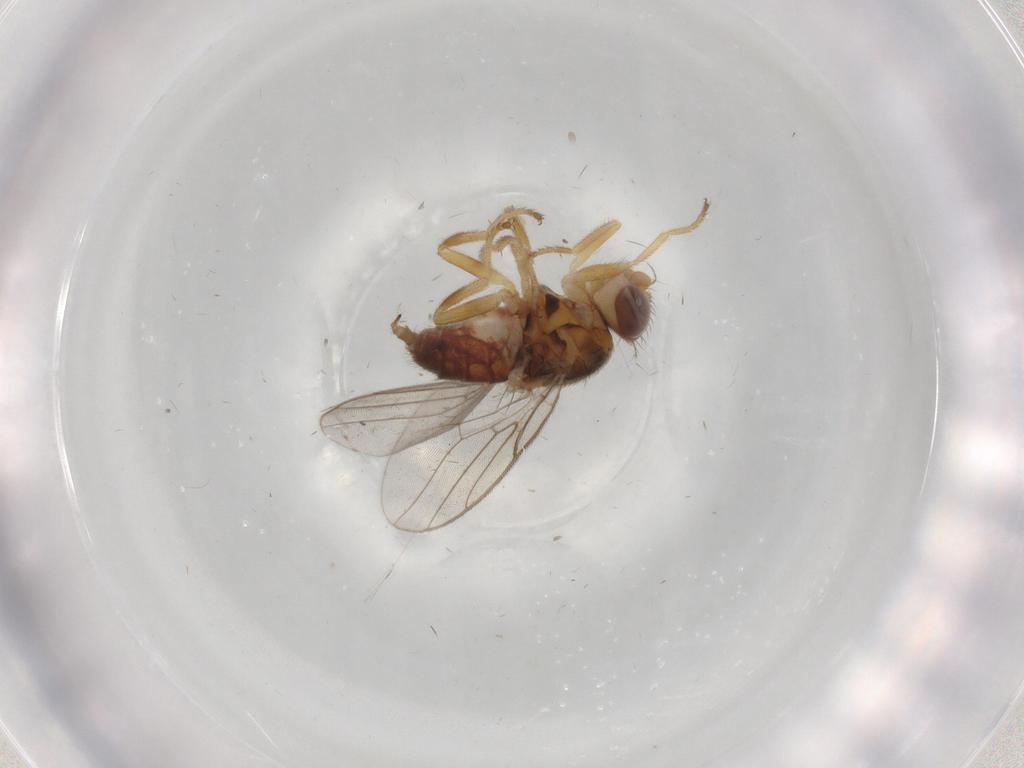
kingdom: Animalia
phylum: Arthropoda
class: Insecta
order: Diptera
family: Chloropidae
